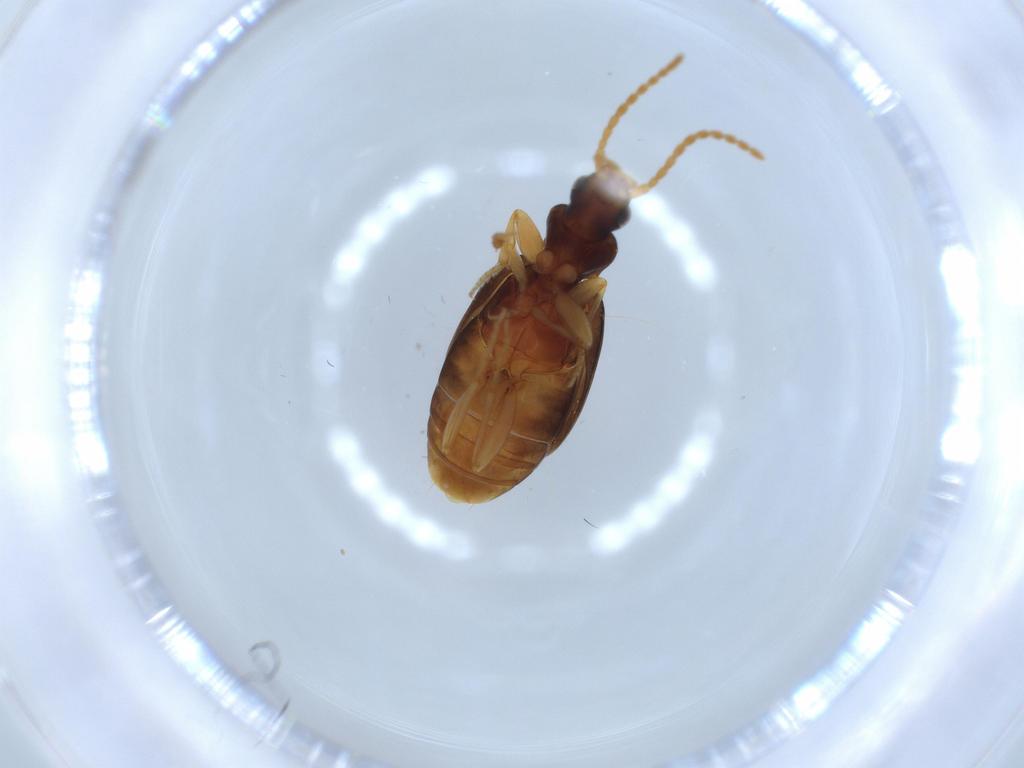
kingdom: Animalia
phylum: Arthropoda
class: Insecta
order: Coleoptera
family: Carabidae
